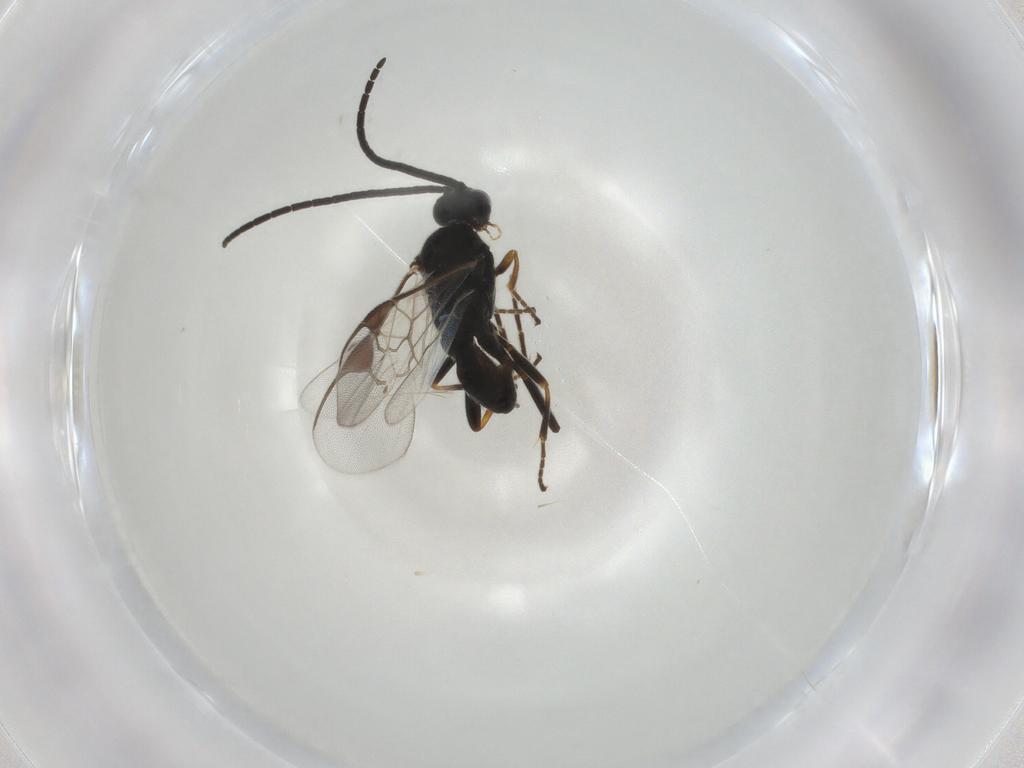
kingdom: Animalia
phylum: Arthropoda
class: Insecta
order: Hymenoptera
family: Braconidae
